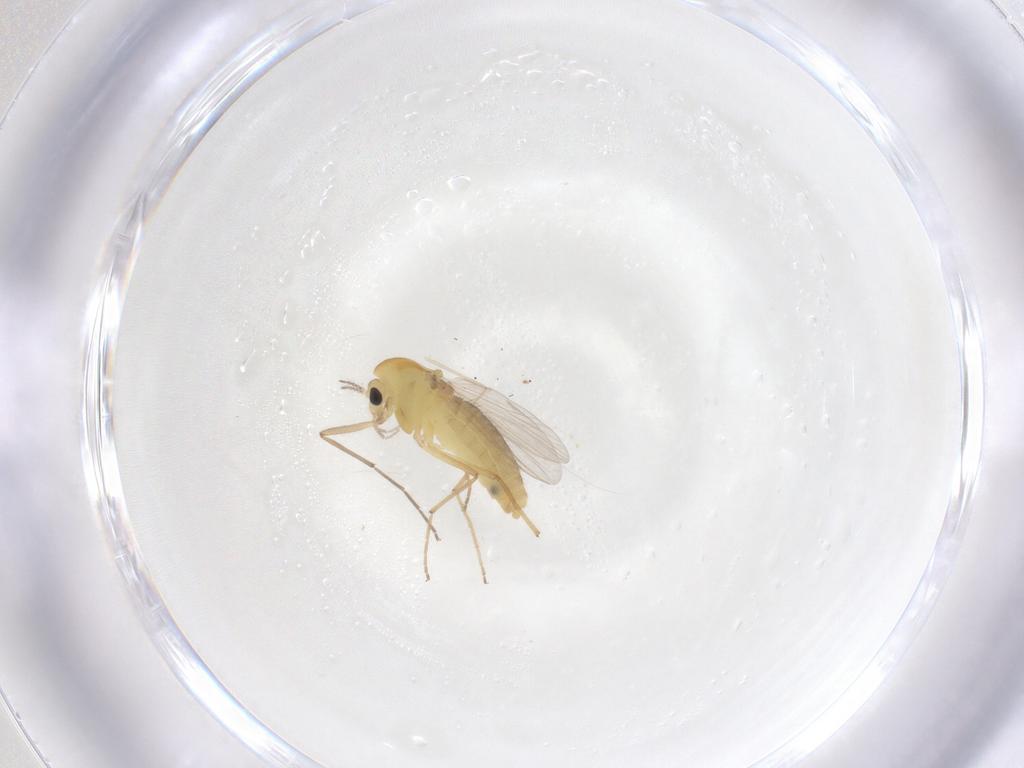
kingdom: Animalia
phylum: Arthropoda
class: Insecta
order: Diptera
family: Chironomidae
